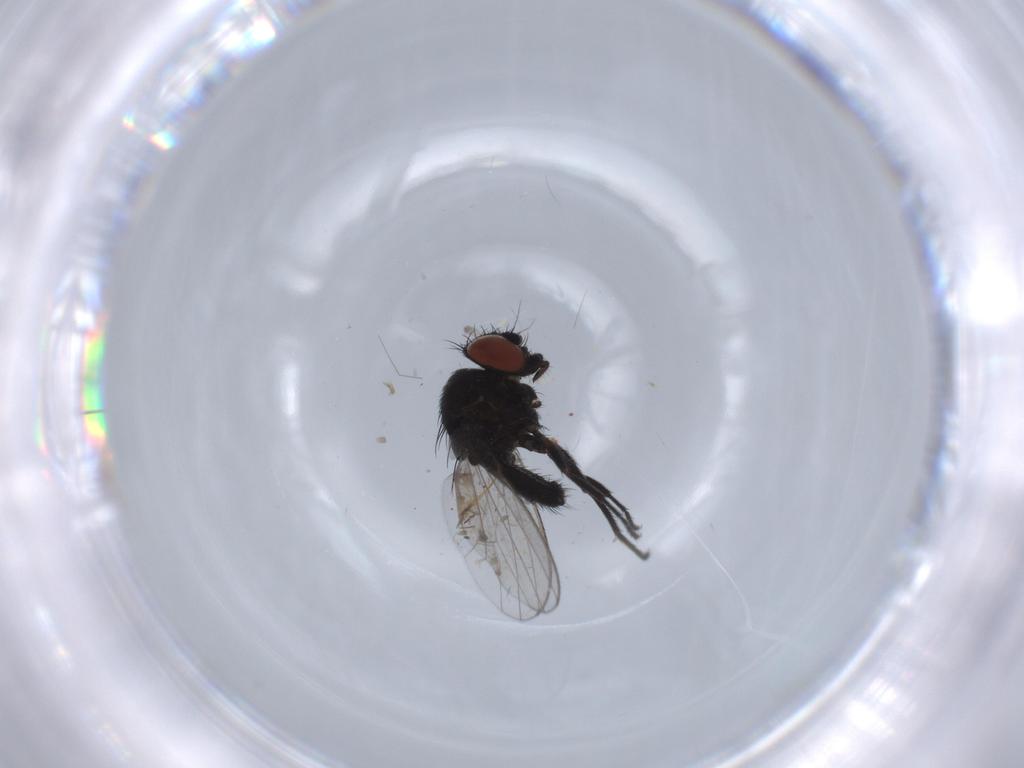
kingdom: Animalia
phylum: Arthropoda
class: Insecta
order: Diptera
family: Milichiidae
